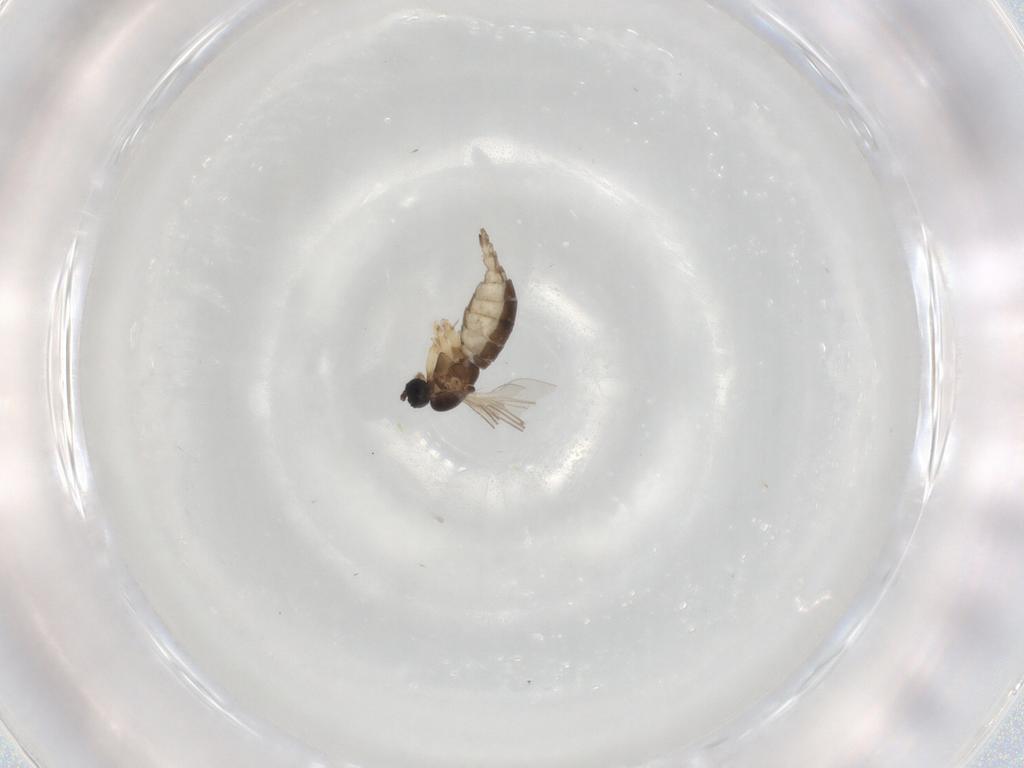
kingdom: Animalia
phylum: Arthropoda
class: Insecta
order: Diptera
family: Sciaridae
